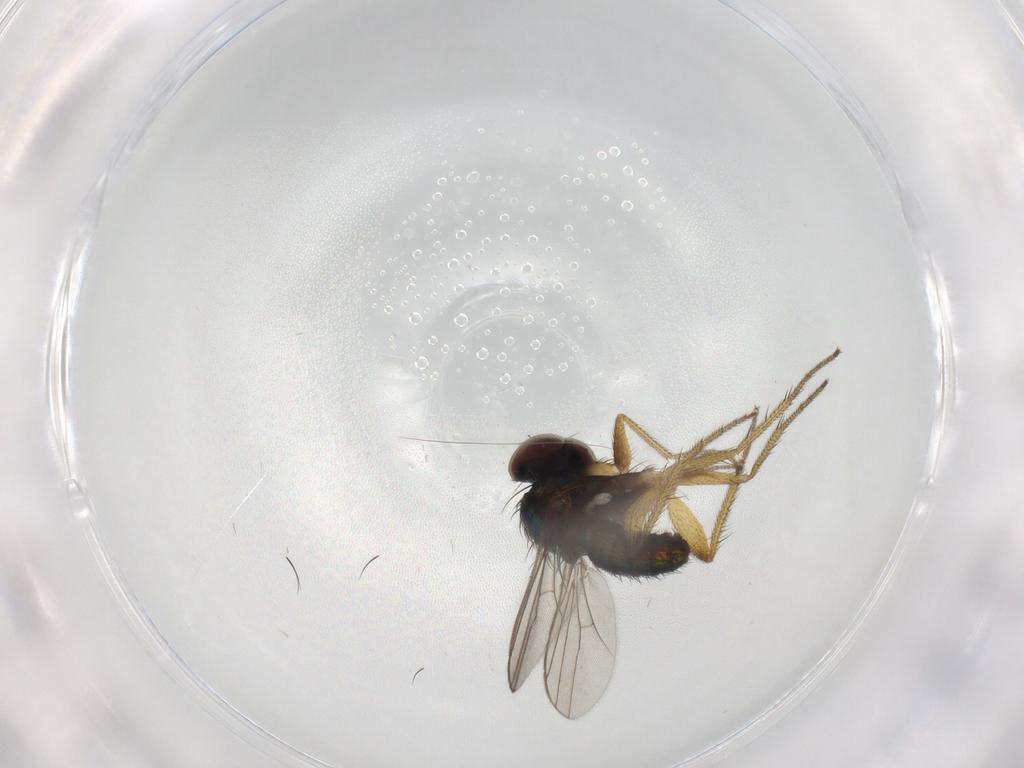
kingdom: Animalia
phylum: Arthropoda
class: Insecta
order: Diptera
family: Dolichopodidae
